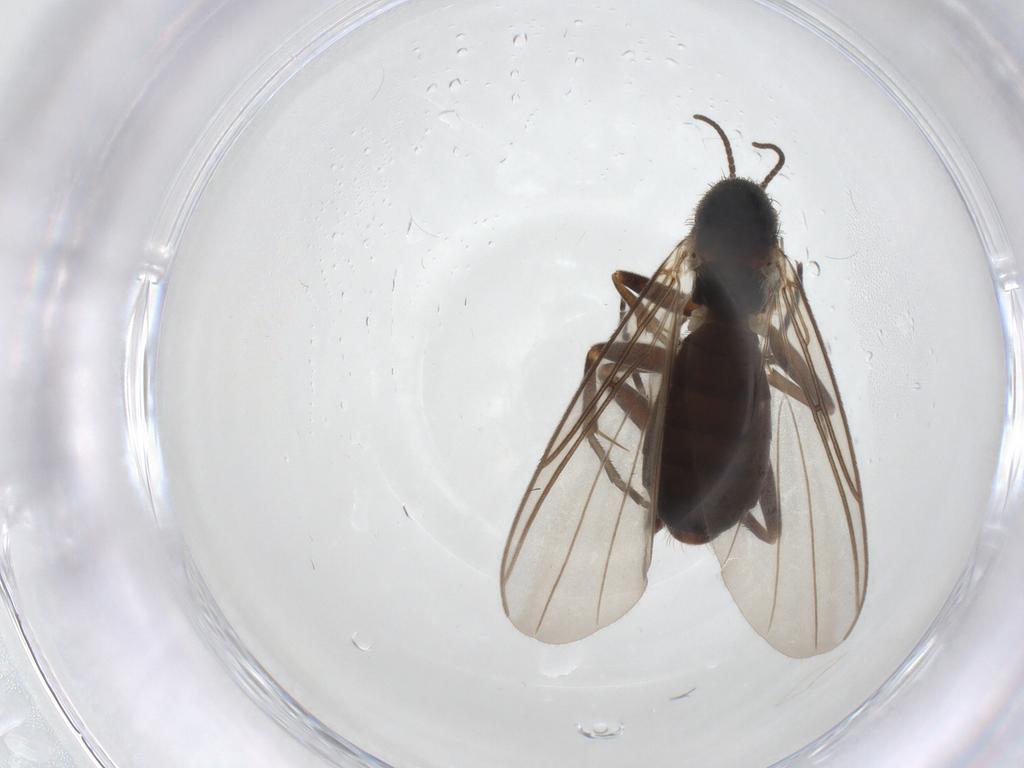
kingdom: Animalia
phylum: Arthropoda
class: Insecta
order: Diptera
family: Mycetophilidae
